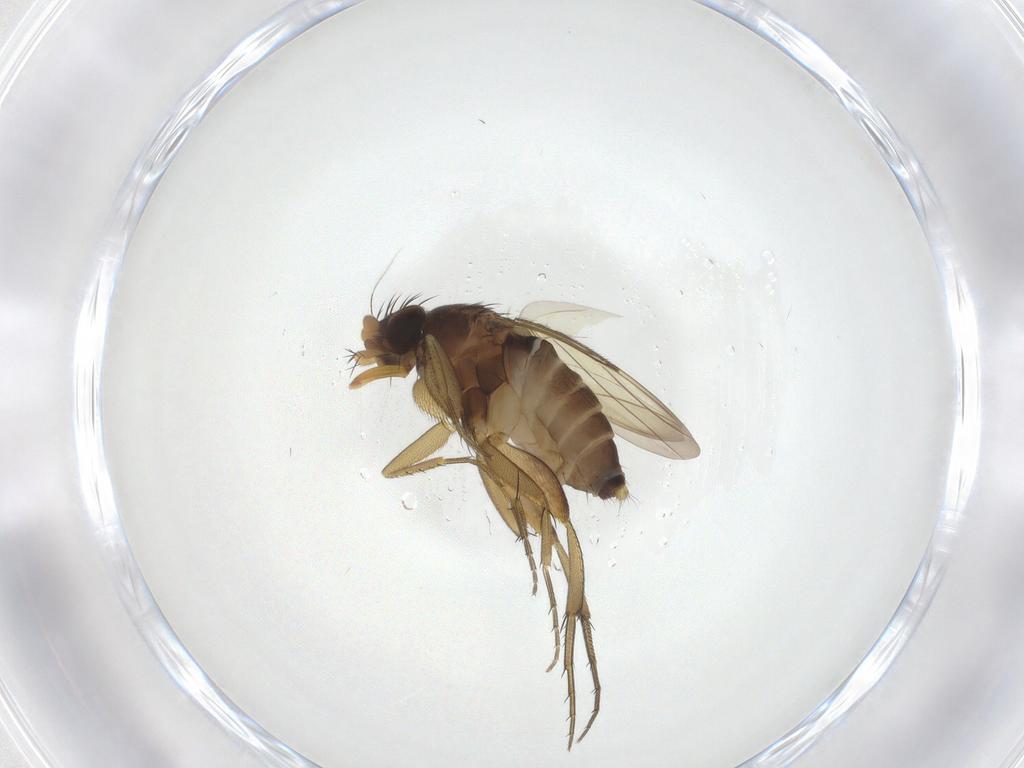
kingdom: Animalia
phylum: Arthropoda
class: Insecta
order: Diptera
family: Phoridae
